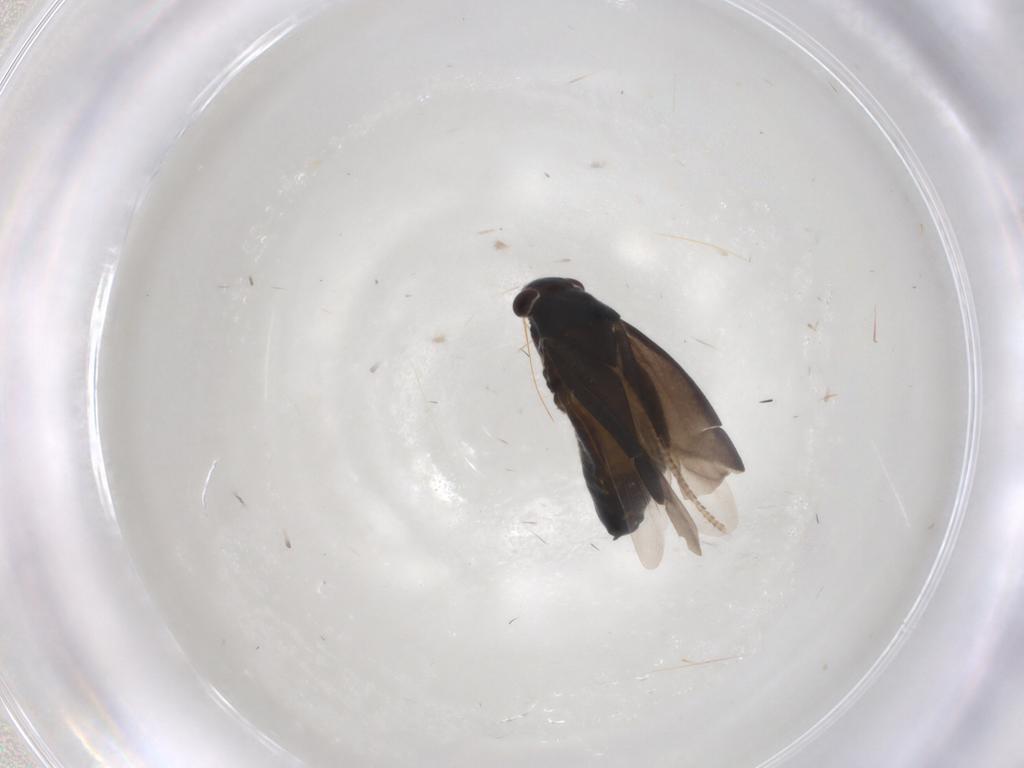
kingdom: Animalia
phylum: Arthropoda
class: Insecta
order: Hemiptera
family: Miridae
